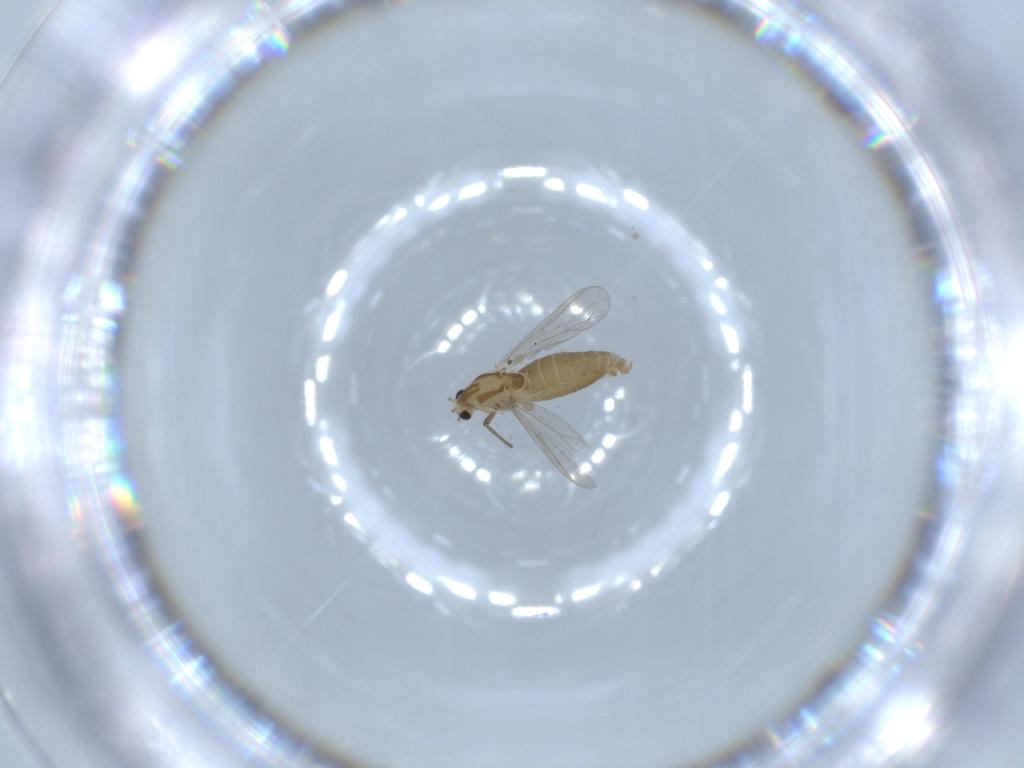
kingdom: Animalia
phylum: Arthropoda
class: Insecta
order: Diptera
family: Chironomidae
